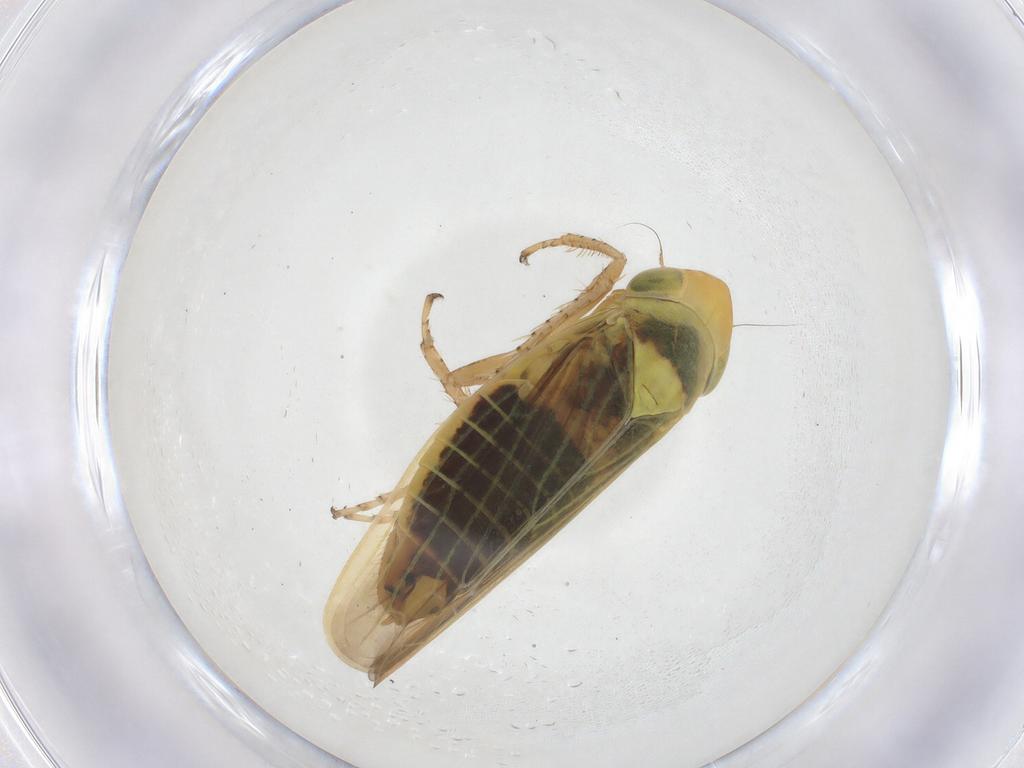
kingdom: Animalia
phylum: Arthropoda
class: Insecta
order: Hemiptera
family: Cicadellidae
